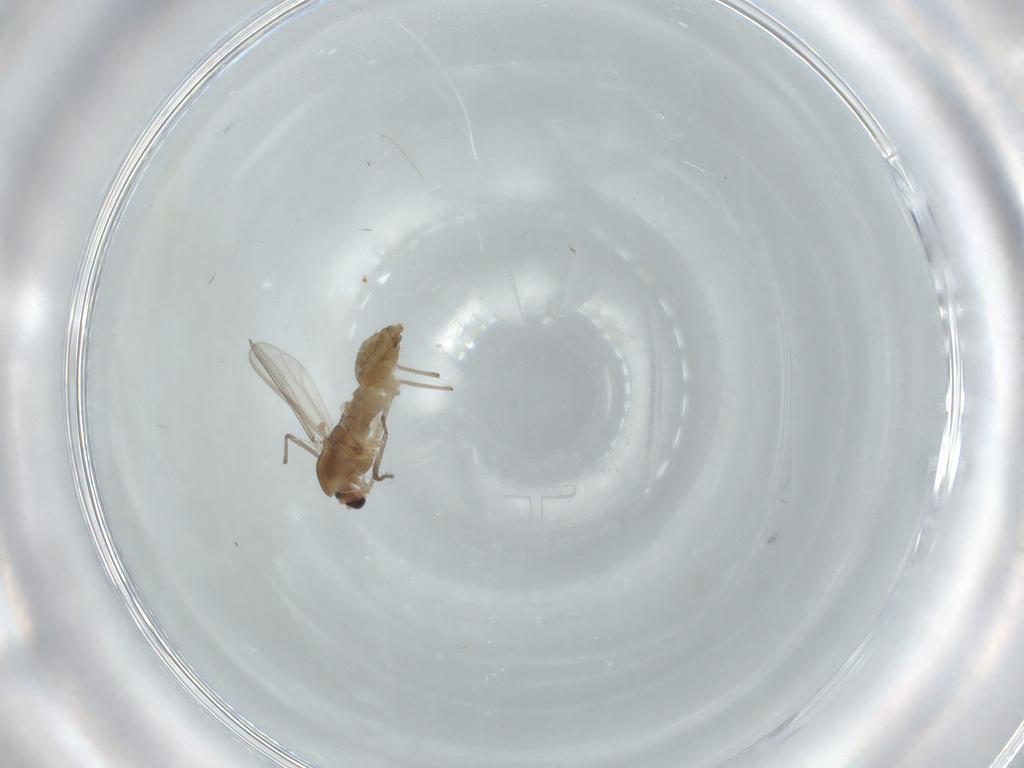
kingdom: Animalia
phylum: Arthropoda
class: Insecta
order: Diptera
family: Chironomidae
